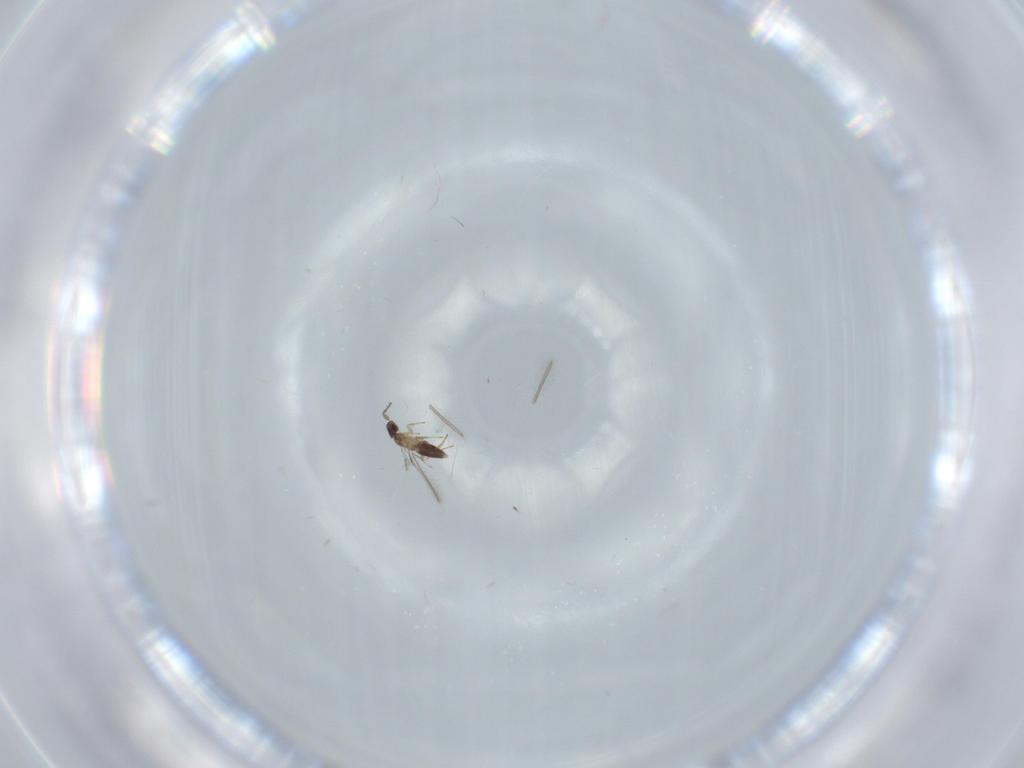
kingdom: Animalia
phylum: Arthropoda
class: Insecta
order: Hymenoptera
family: Mymaridae
